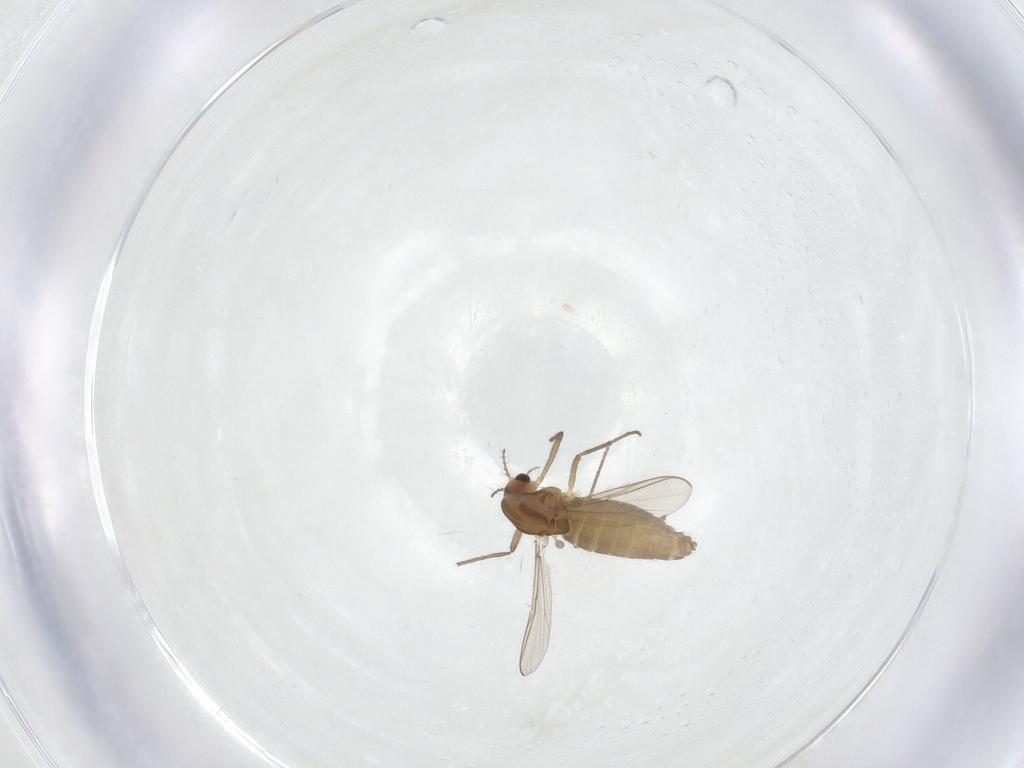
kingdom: Animalia
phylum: Arthropoda
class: Insecta
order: Diptera
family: Chironomidae
